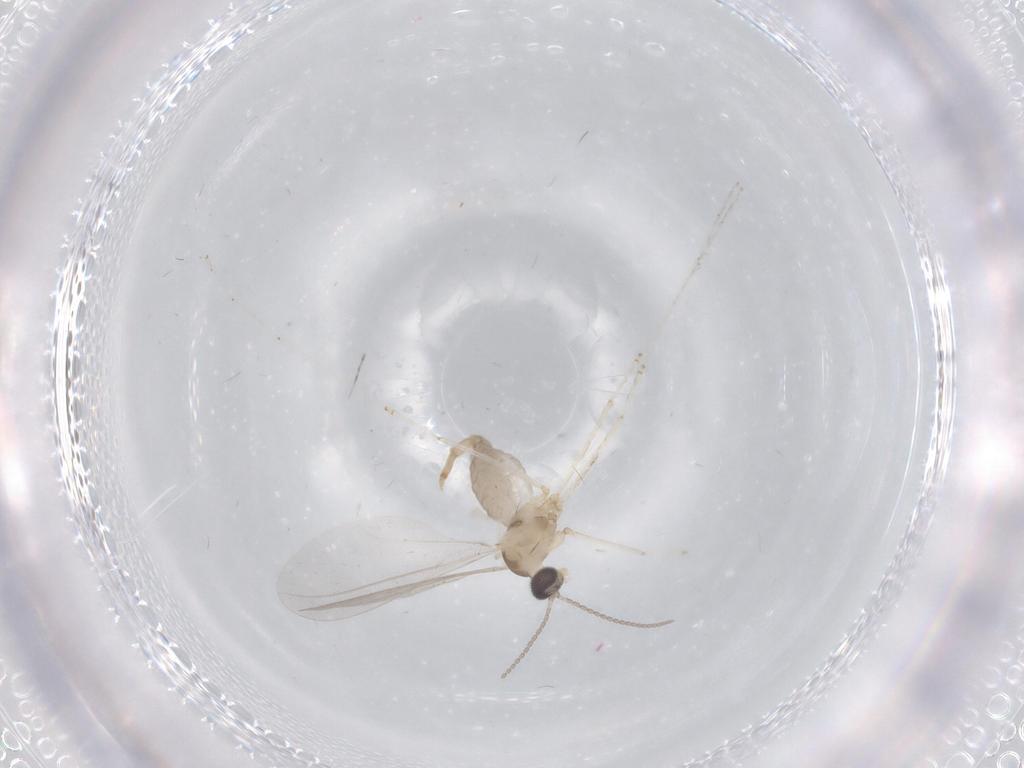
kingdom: Animalia
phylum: Arthropoda
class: Insecta
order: Diptera
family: Cecidomyiidae
